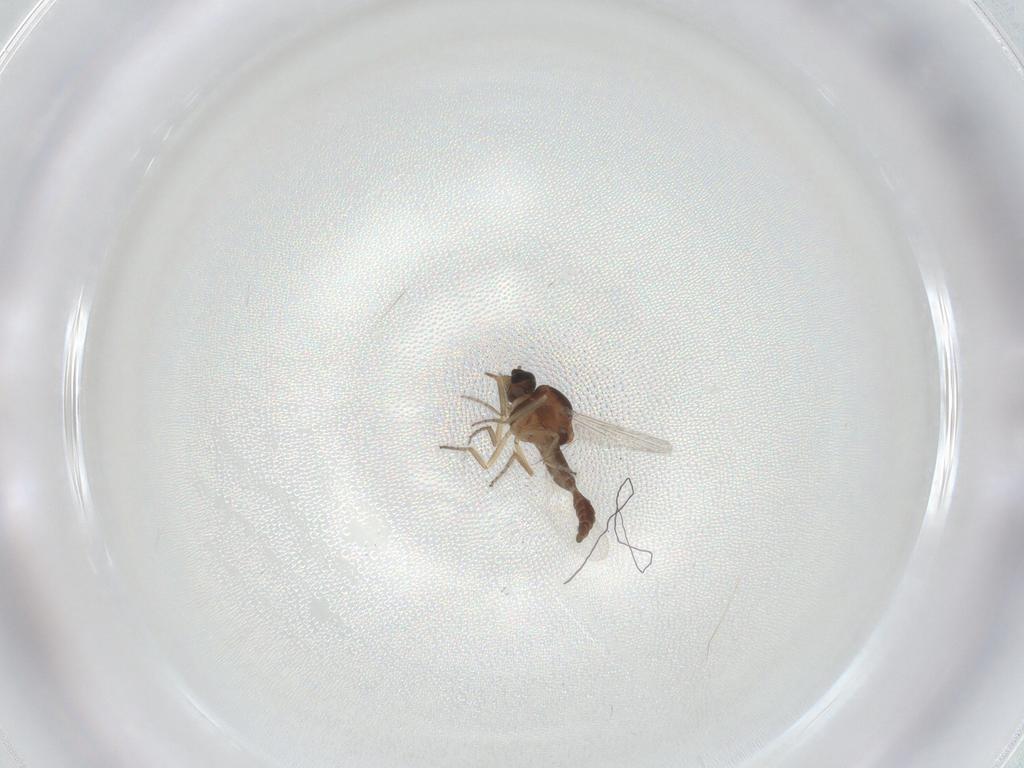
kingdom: Animalia
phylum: Arthropoda
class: Insecta
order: Diptera
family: Ceratopogonidae
